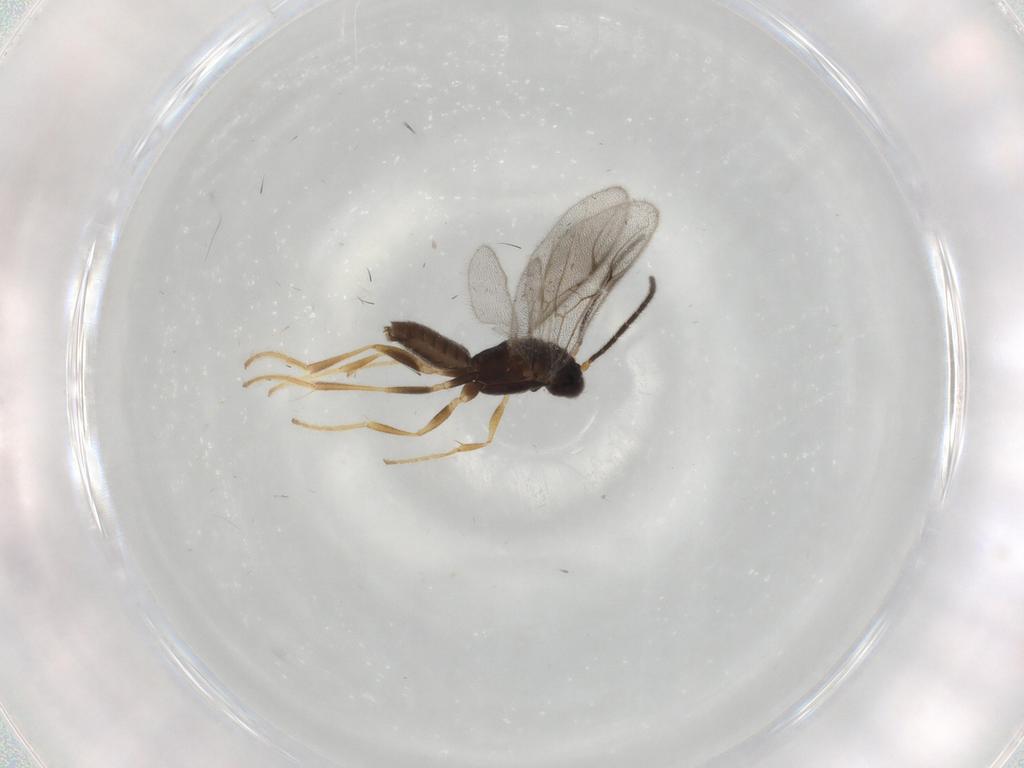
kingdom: Animalia
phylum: Arthropoda
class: Insecta
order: Hymenoptera
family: Dryinidae
